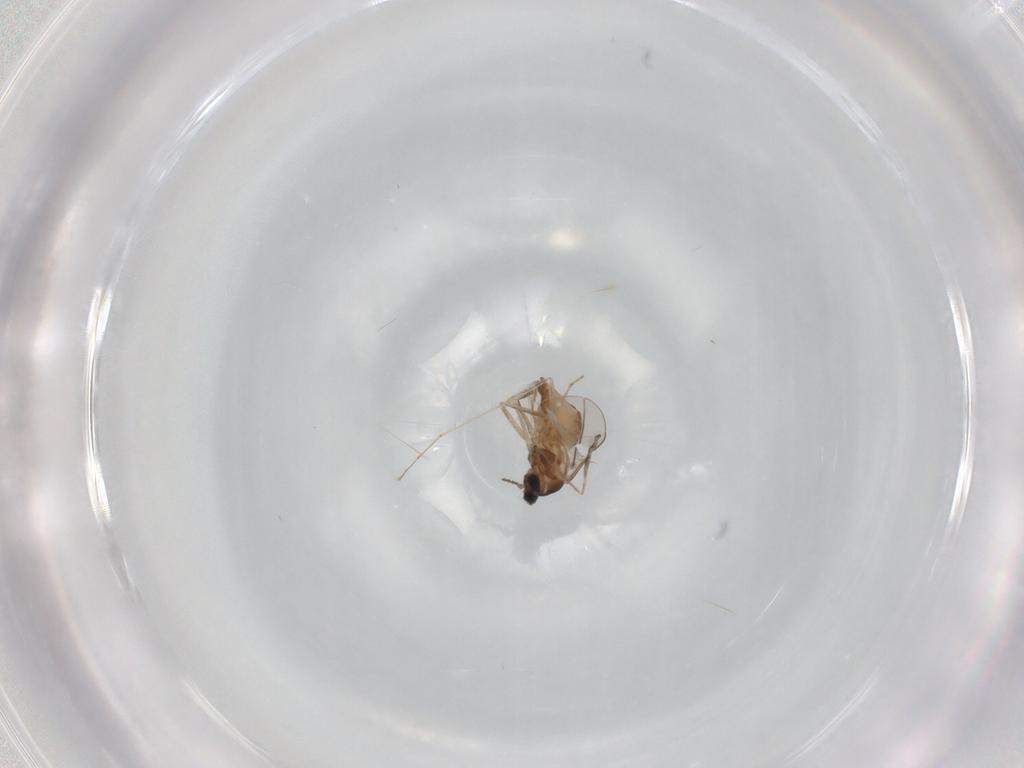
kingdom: Animalia
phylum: Arthropoda
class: Insecta
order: Diptera
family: Cecidomyiidae
